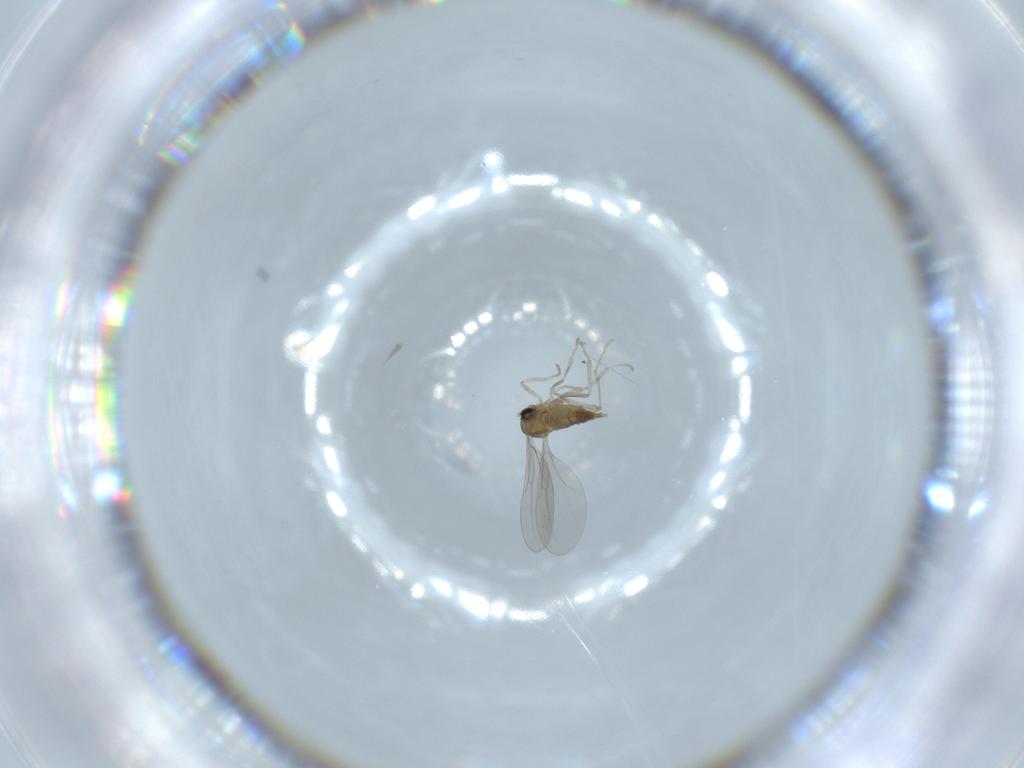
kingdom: Animalia
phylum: Arthropoda
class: Insecta
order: Diptera
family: Cecidomyiidae
